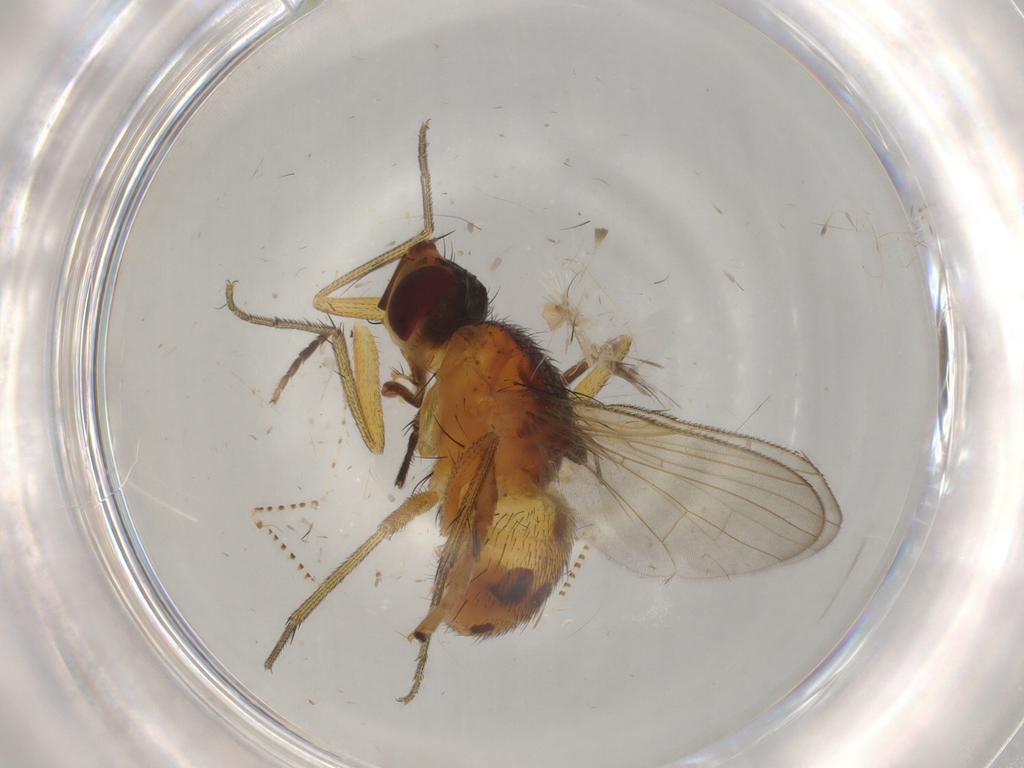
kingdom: Animalia
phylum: Arthropoda
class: Insecta
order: Diptera
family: Chaoboridae
